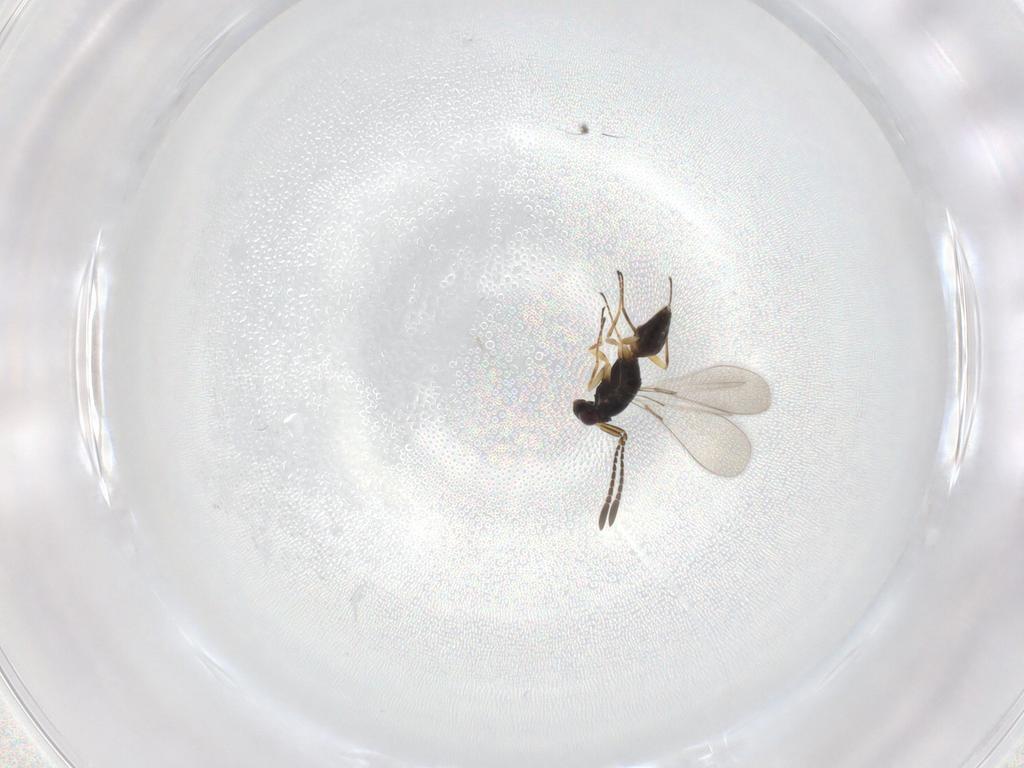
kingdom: Animalia
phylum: Arthropoda
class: Insecta
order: Hymenoptera
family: Mymaridae
